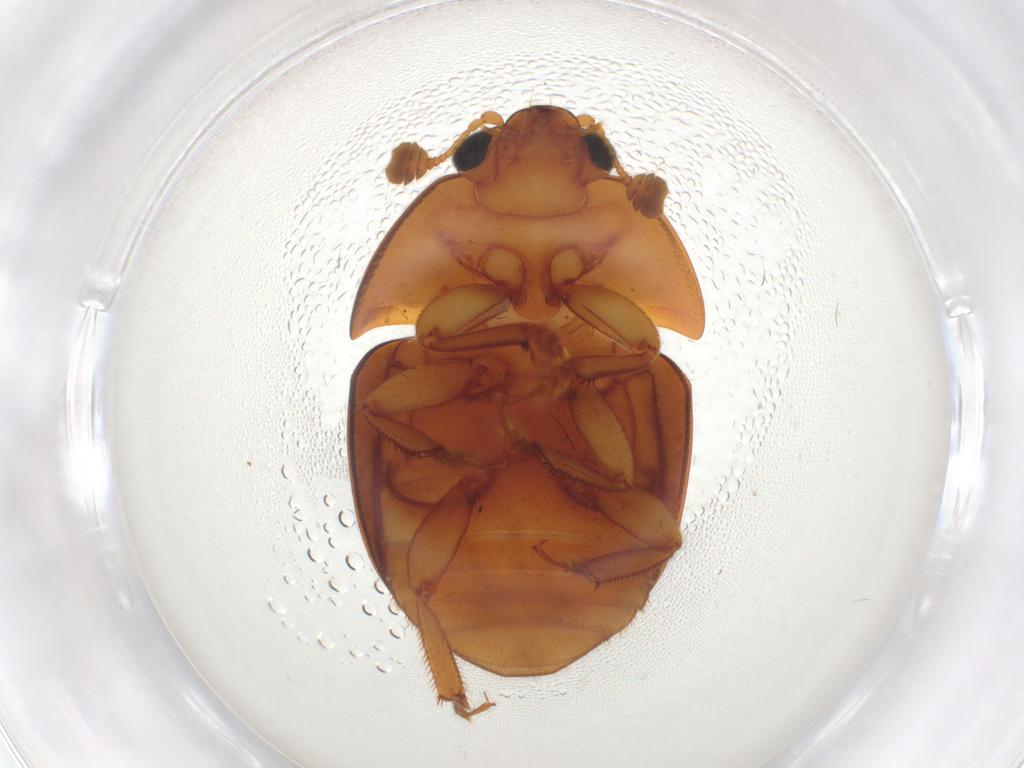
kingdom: Animalia
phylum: Arthropoda
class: Insecta
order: Coleoptera
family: Nitidulidae
